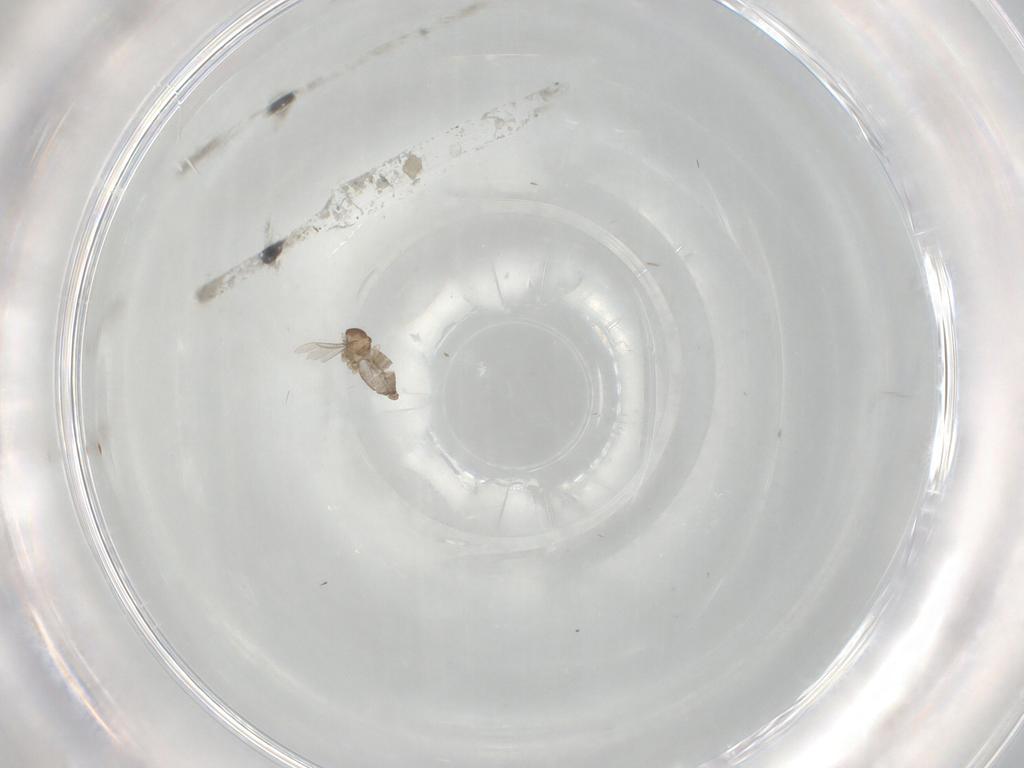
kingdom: Animalia
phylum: Arthropoda
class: Insecta
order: Diptera
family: Cecidomyiidae
